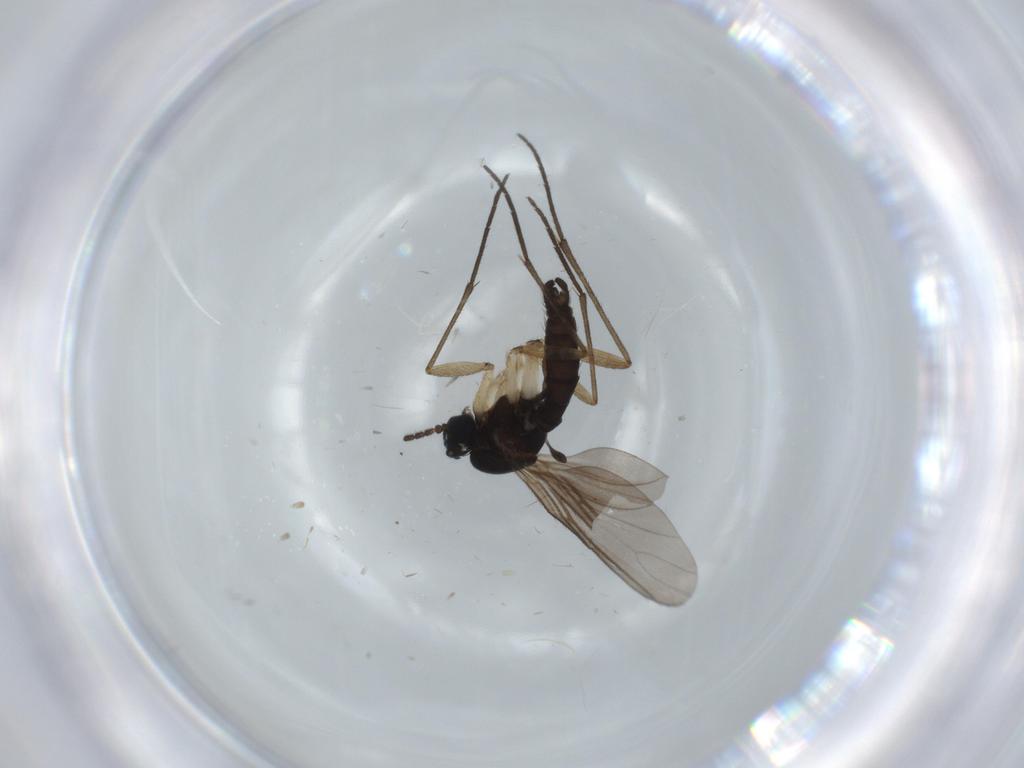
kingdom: Animalia
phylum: Arthropoda
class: Insecta
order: Diptera
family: Sciaridae
